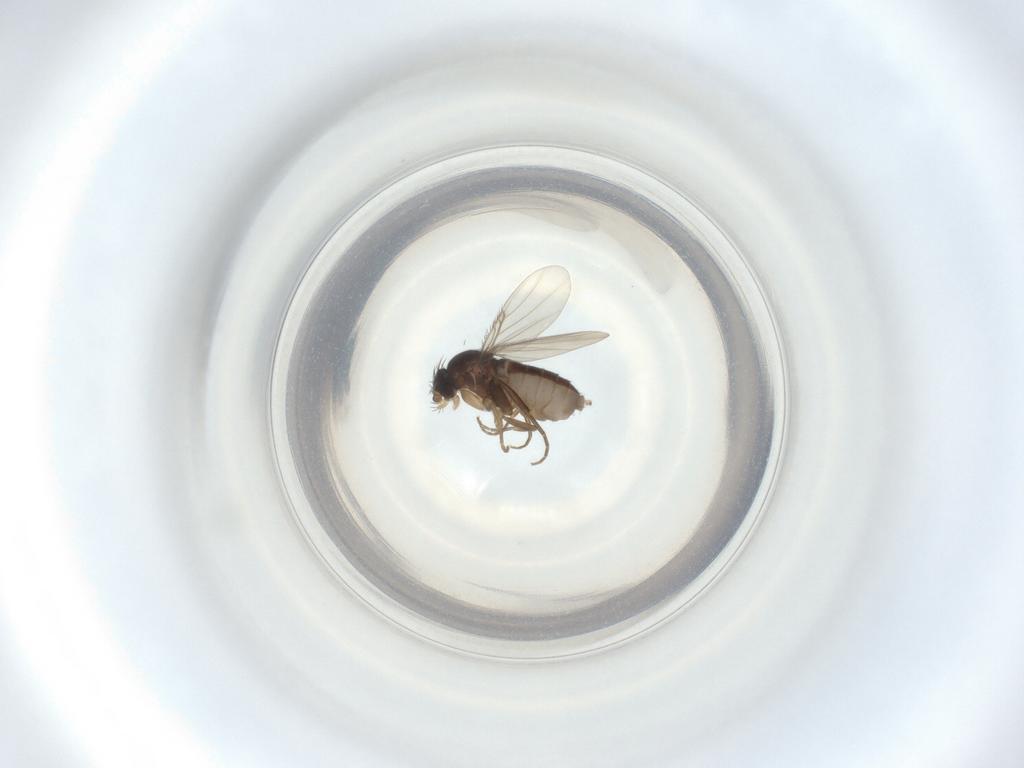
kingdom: Animalia
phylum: Arthropoda
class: Insecta
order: Diptera
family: Phoridae
